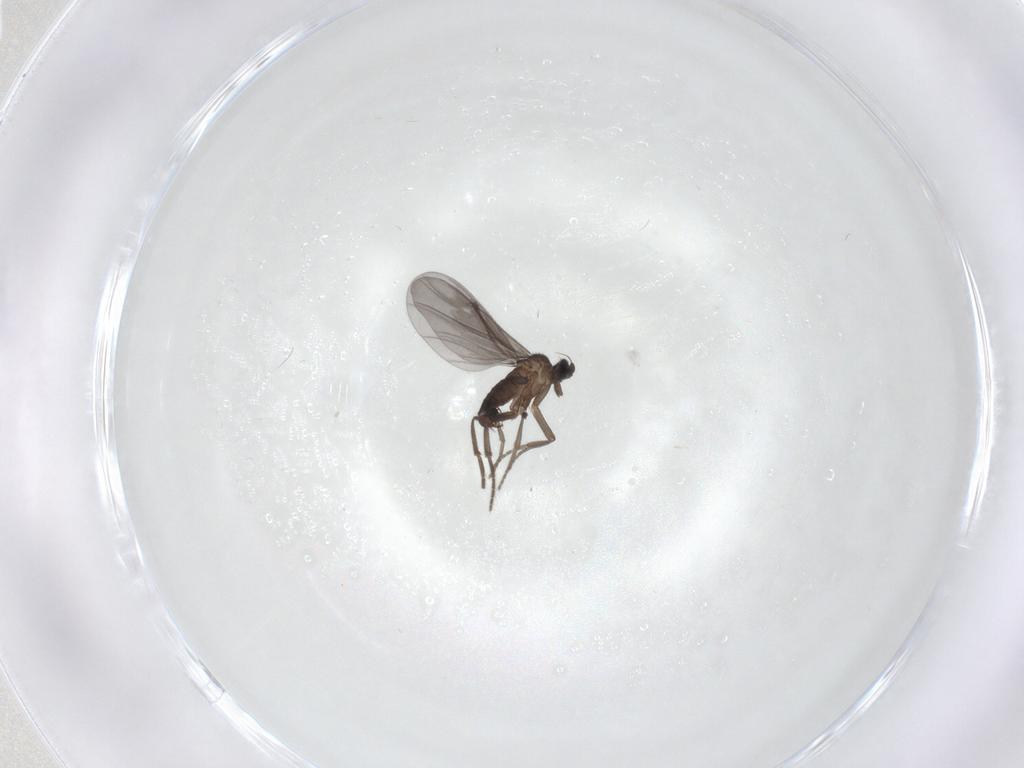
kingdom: Animalia
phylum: Arthropoda
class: Insecta
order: Diptera
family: Phoridae
